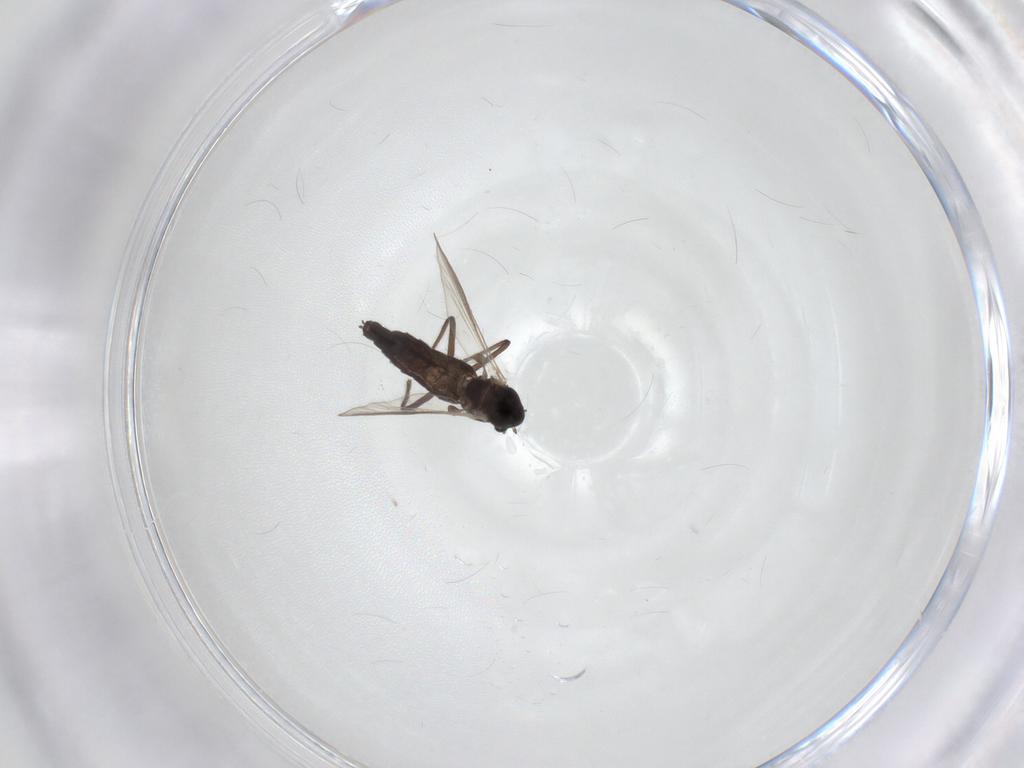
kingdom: Animalia
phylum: Arthropoda
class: Insecta
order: Diptera
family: Chironomidae
